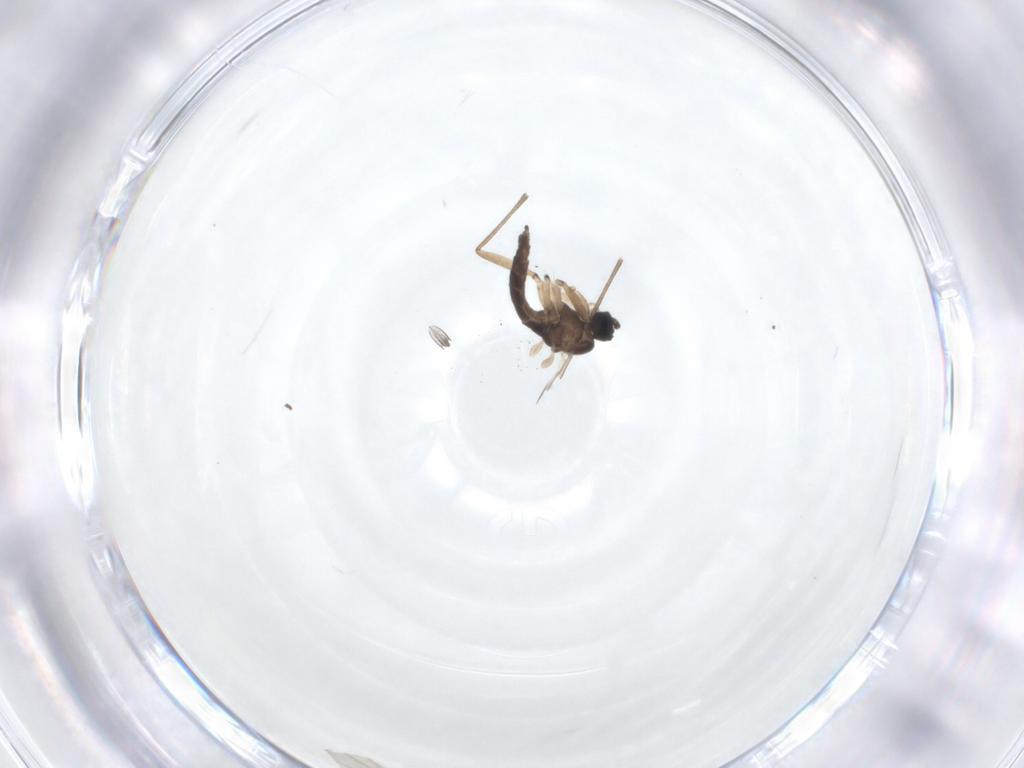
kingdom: Animalia
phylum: Arthropoda
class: Insecta
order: Diptera
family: Sciaridae
